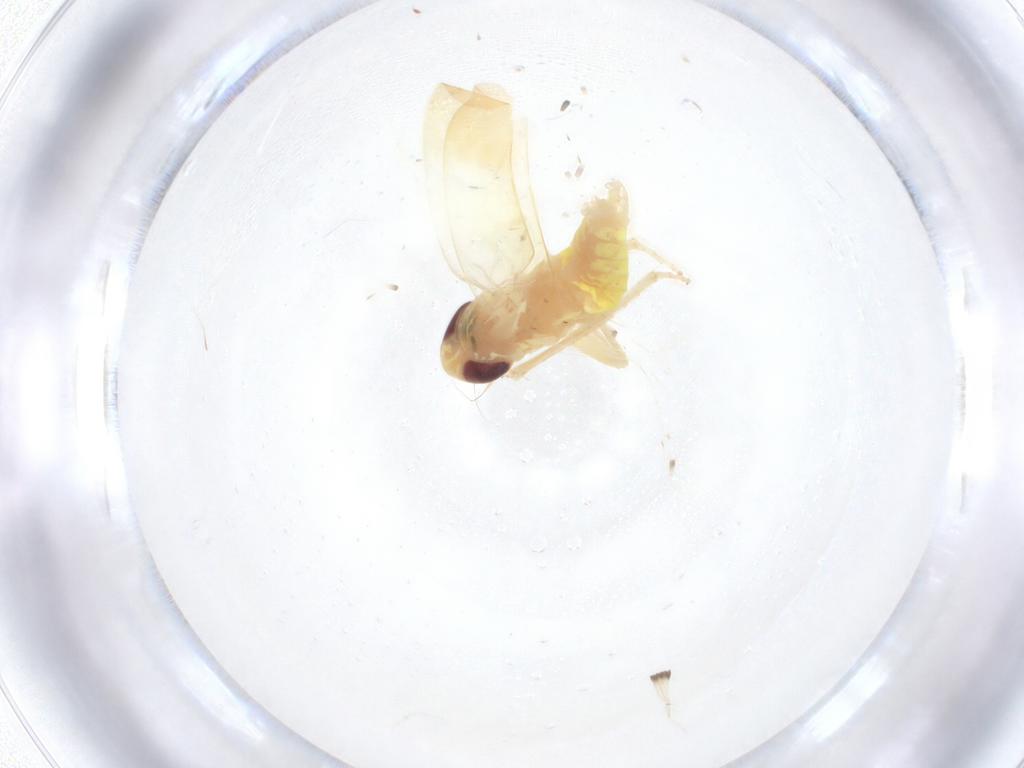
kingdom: Animalia
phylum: Arthropoda
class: Insecta
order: Hemiptera
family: Cicadellidae
